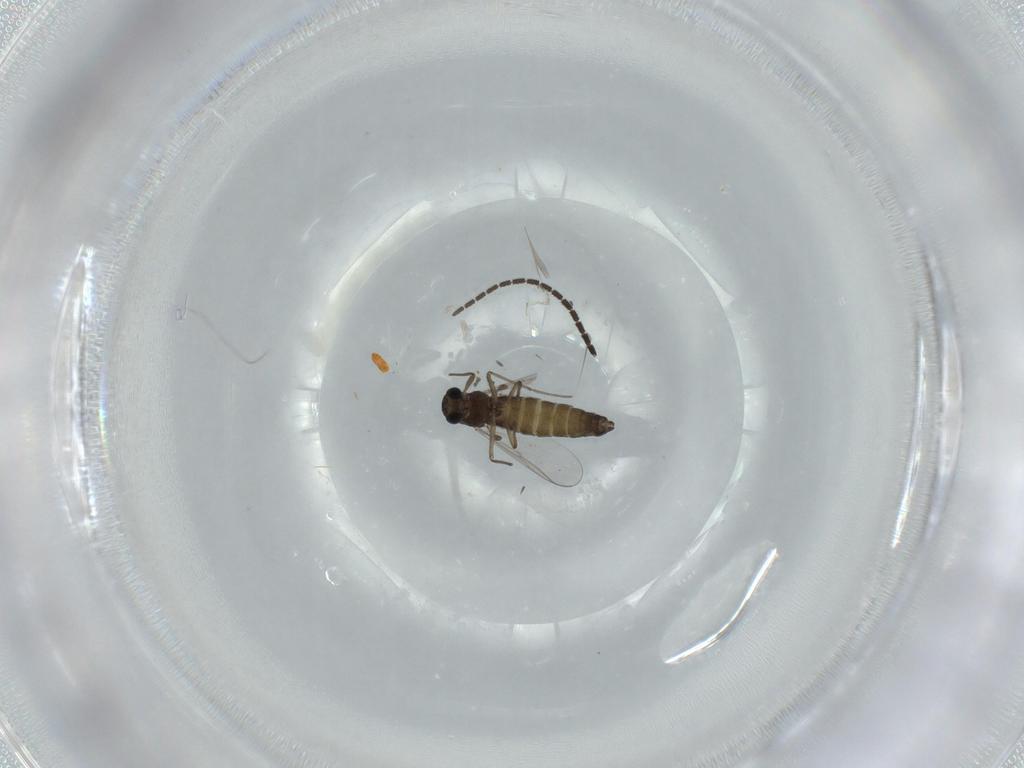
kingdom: Animalia
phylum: Arthropoda
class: Insecta
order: Diptera
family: Chironomidae
